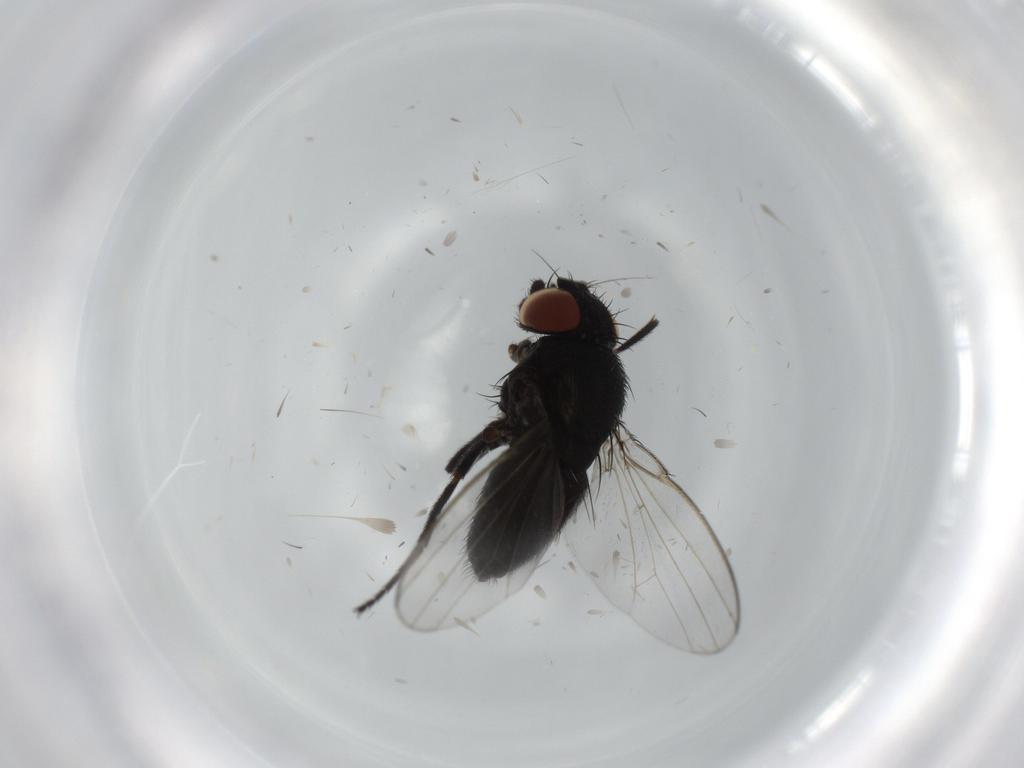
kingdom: Animalia
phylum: Arthropoda
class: Insecta
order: Diptera
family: Milichiidae
